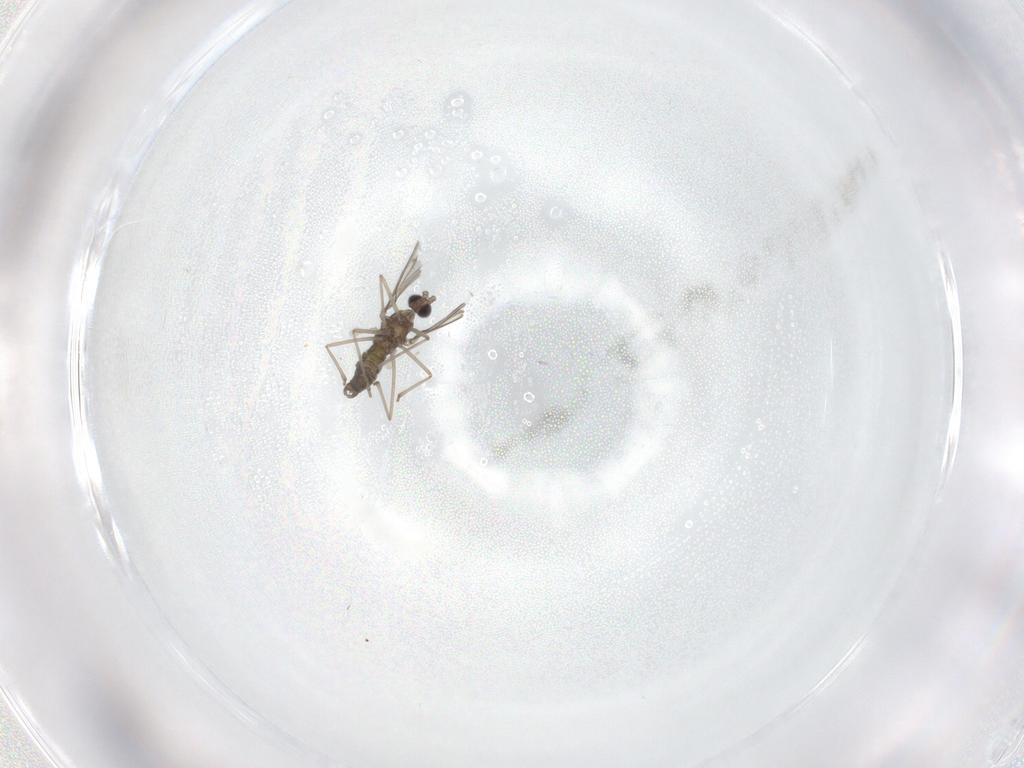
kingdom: Animalia
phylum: Arthropoda
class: Insecta
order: Diptera
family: Cecidomyiidae
